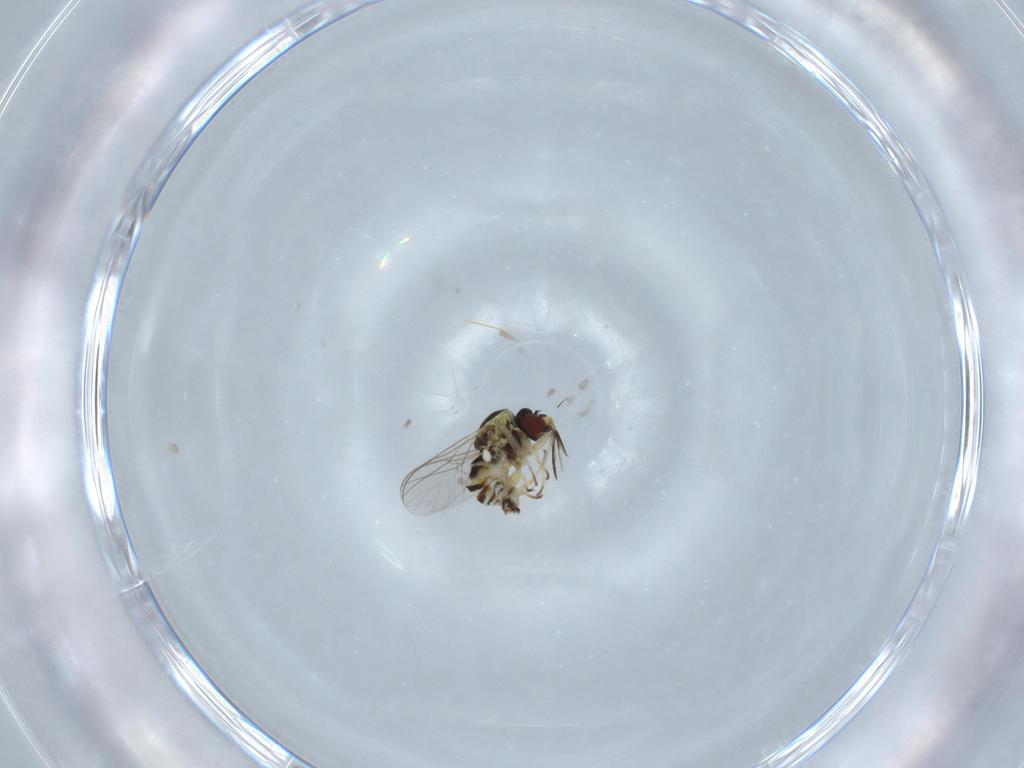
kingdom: Animalia
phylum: Arthropoda
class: Insecta
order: Diptera
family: Bombyliidae
